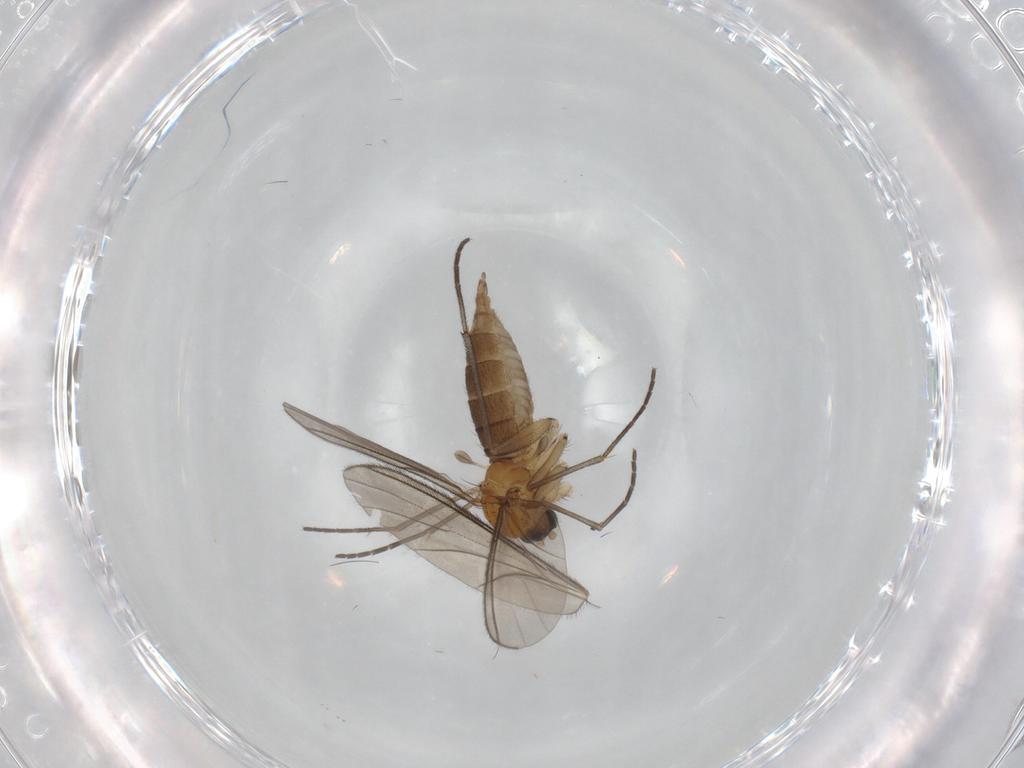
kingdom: Animalia
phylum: Arthropoda
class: Insecta
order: Diptera
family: Sciaridae
